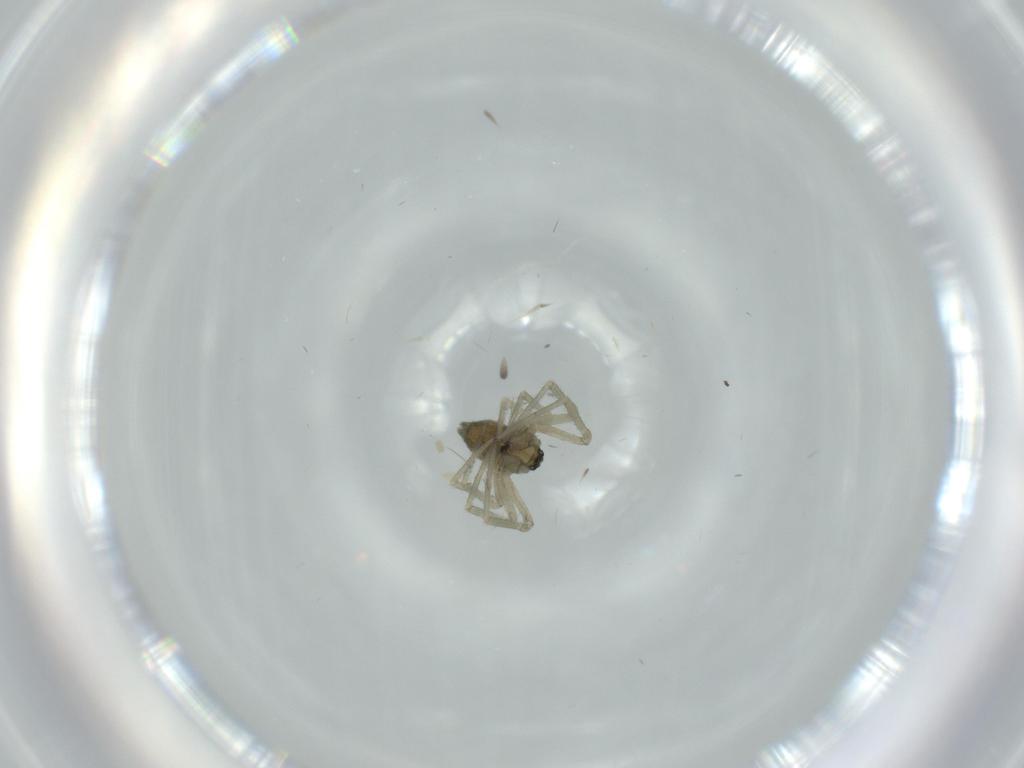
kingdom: Animalia
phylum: Arthropoda
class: Arachnida
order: Araneae
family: Linyphiidae
